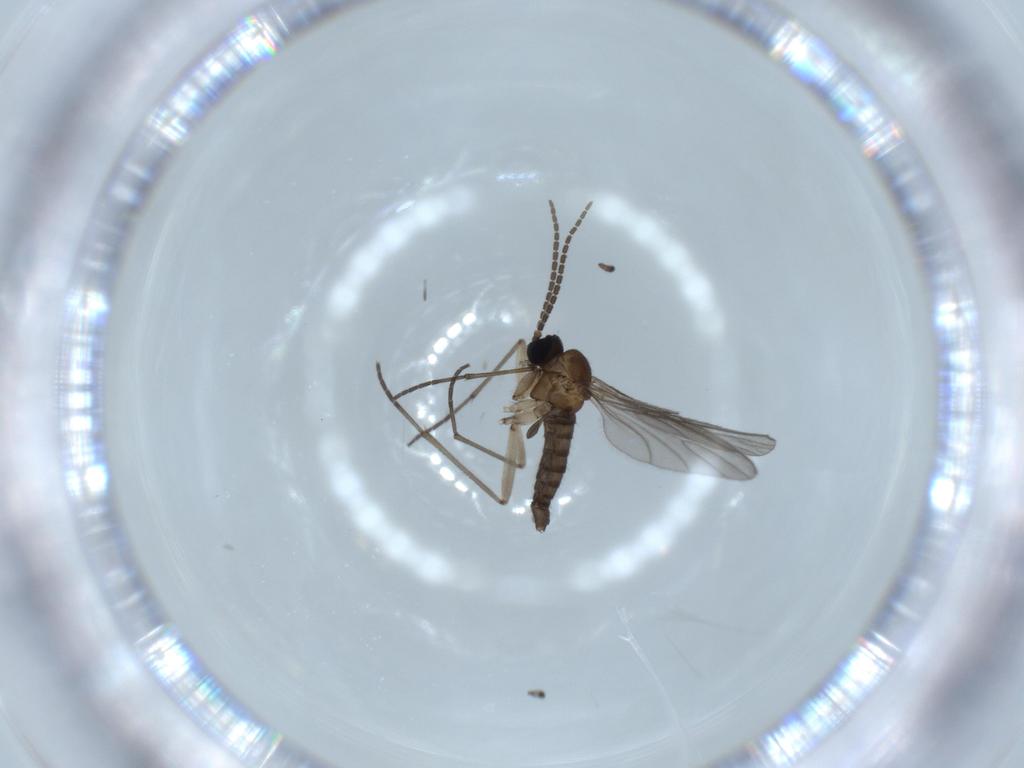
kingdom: Animalia
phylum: Arthropoda
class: Insecta
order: Diptera
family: Sciaridae
